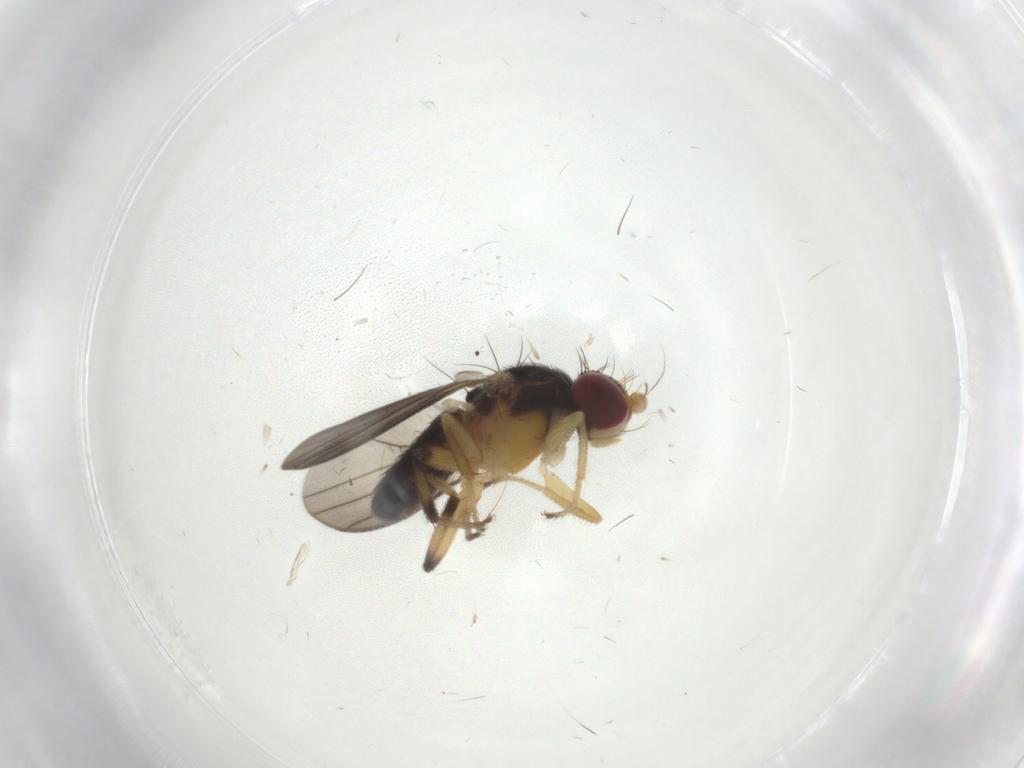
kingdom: Animalia
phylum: Arthropoda
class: Insecta
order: Diptera
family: Clusiidae
